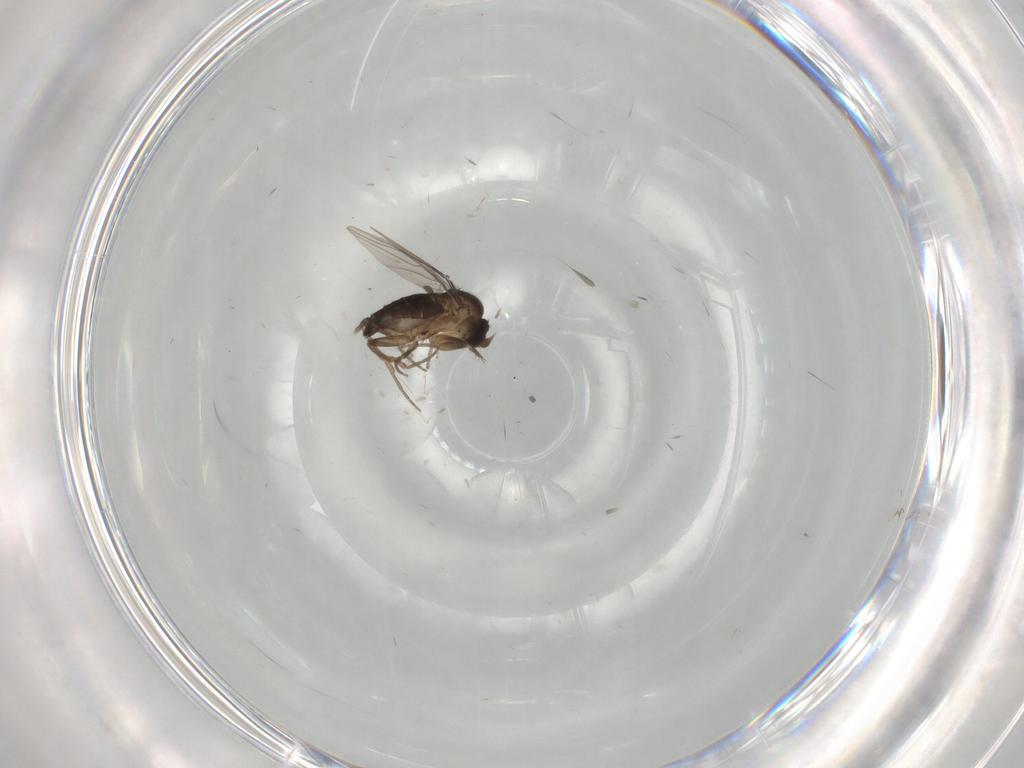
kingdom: Animalia
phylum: Arthropoda
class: Insecta
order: Diptera
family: Phoridae
